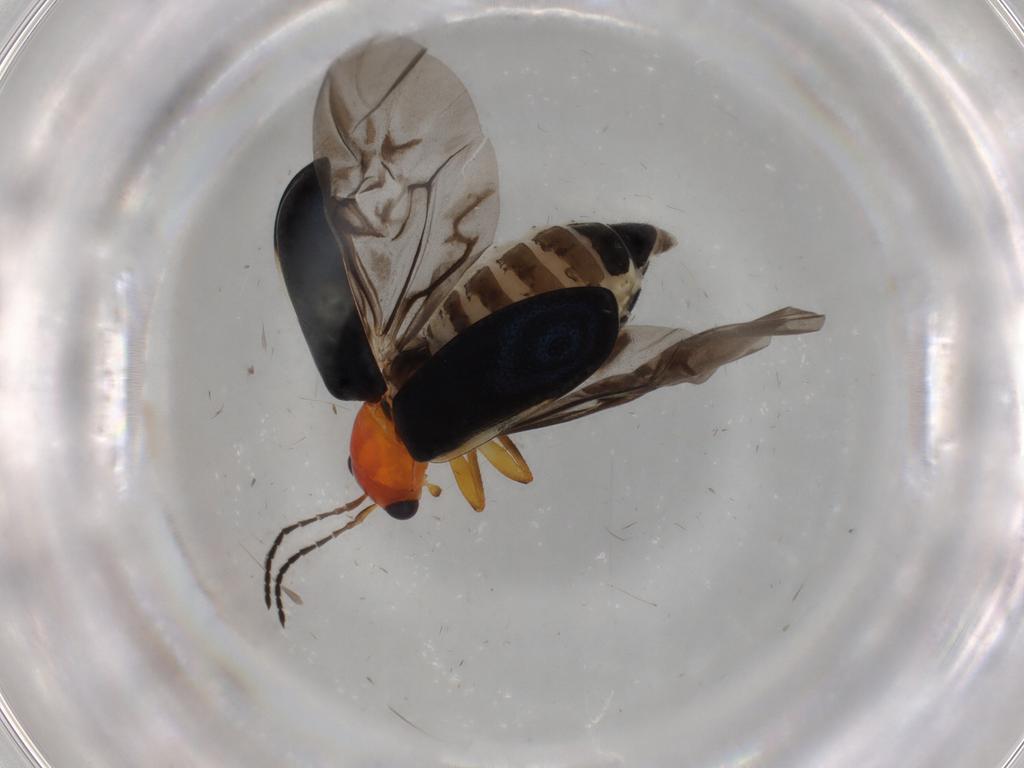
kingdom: Animalia
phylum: Arthropoda
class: Insecta
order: Coleoptera
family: Chrysomelidae
